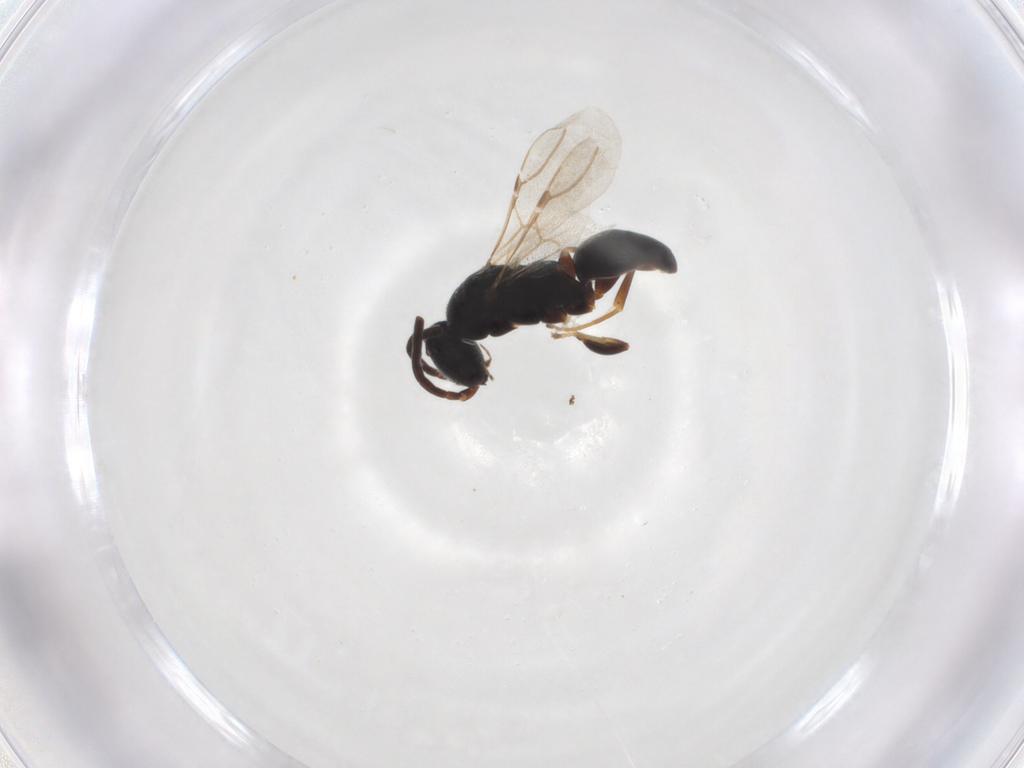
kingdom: Animalia
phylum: Arthropoda
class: Insecta
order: Hymenoptera
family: Bethylidae
